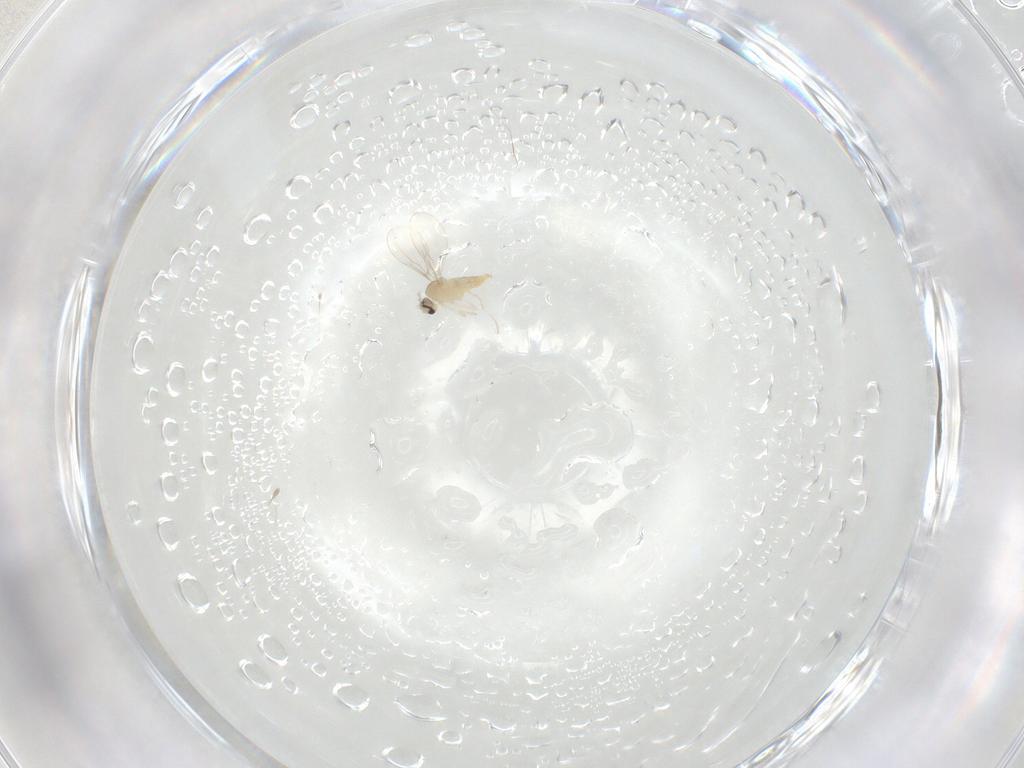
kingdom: Animalia
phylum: Arthropoda
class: Insecta
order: Diptera
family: Cecidomyiidae
